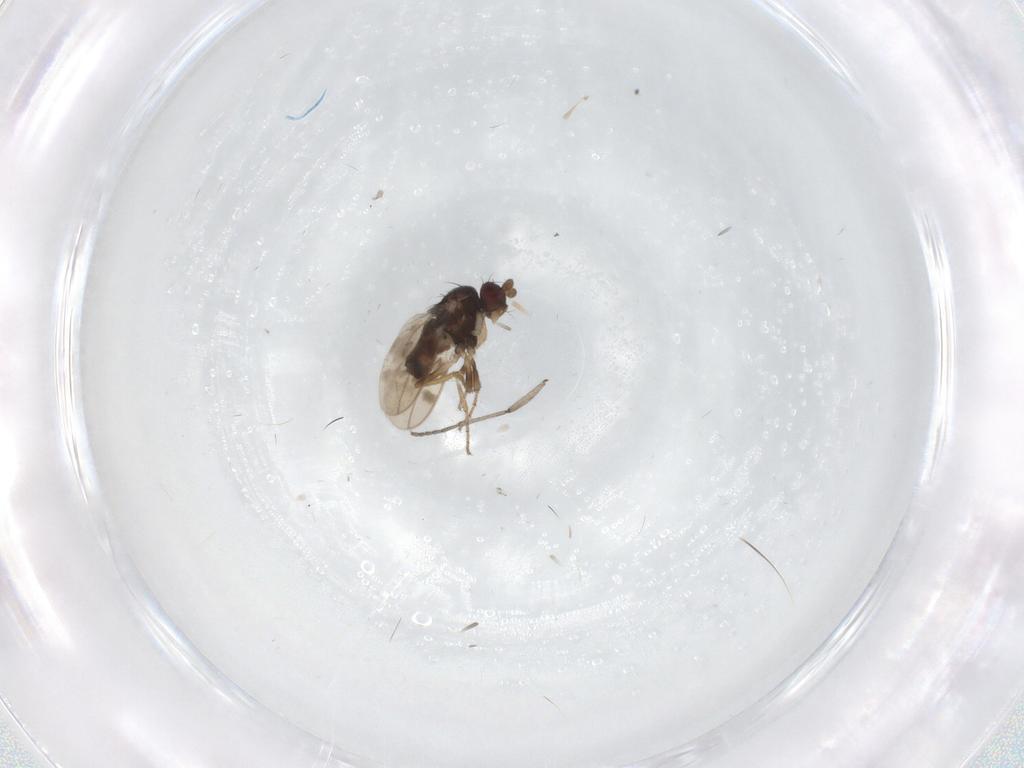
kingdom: Animalia
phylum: Arthropoda
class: Insecta
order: Diptera
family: Sphaeroceridae
